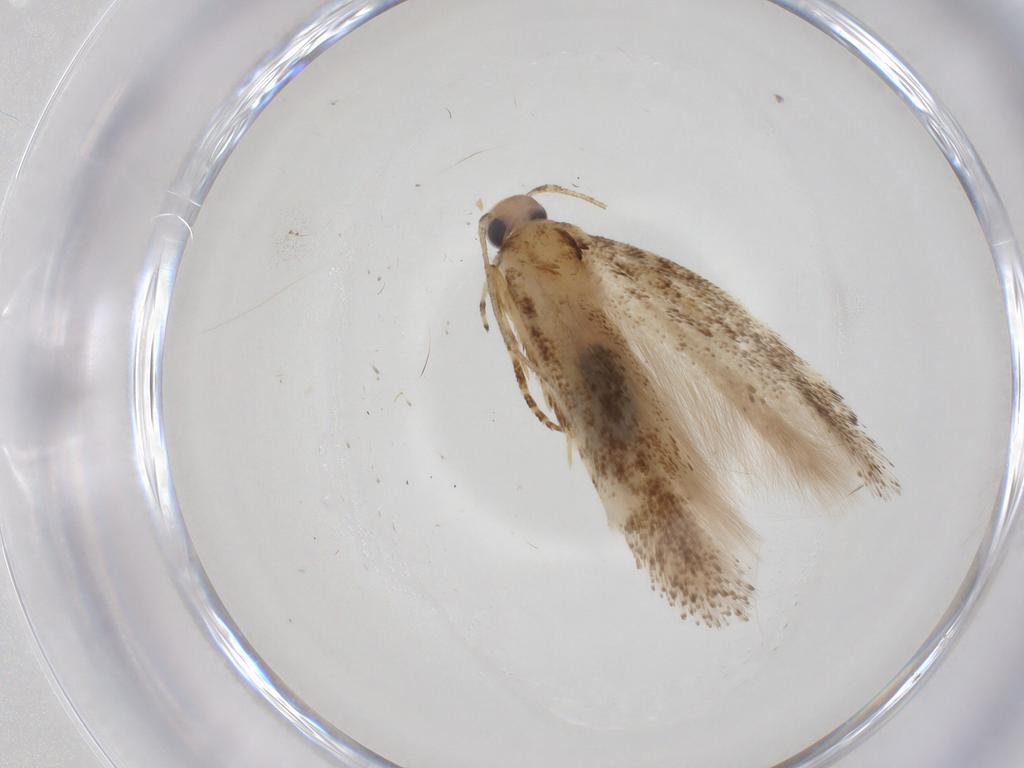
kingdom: Animalia
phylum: Arthropoda
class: Insecta
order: Lepidoptera
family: Gelechiidae
